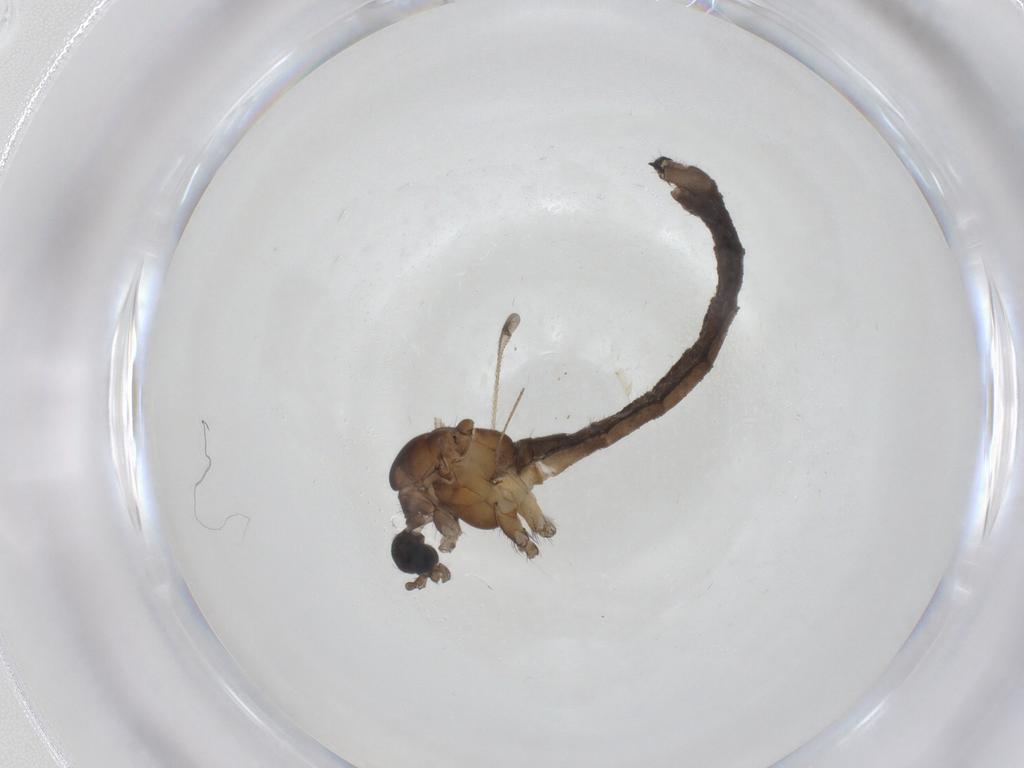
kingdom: Animalia
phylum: Arthropoda
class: Insecta
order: Diptera
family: Limoniidae
